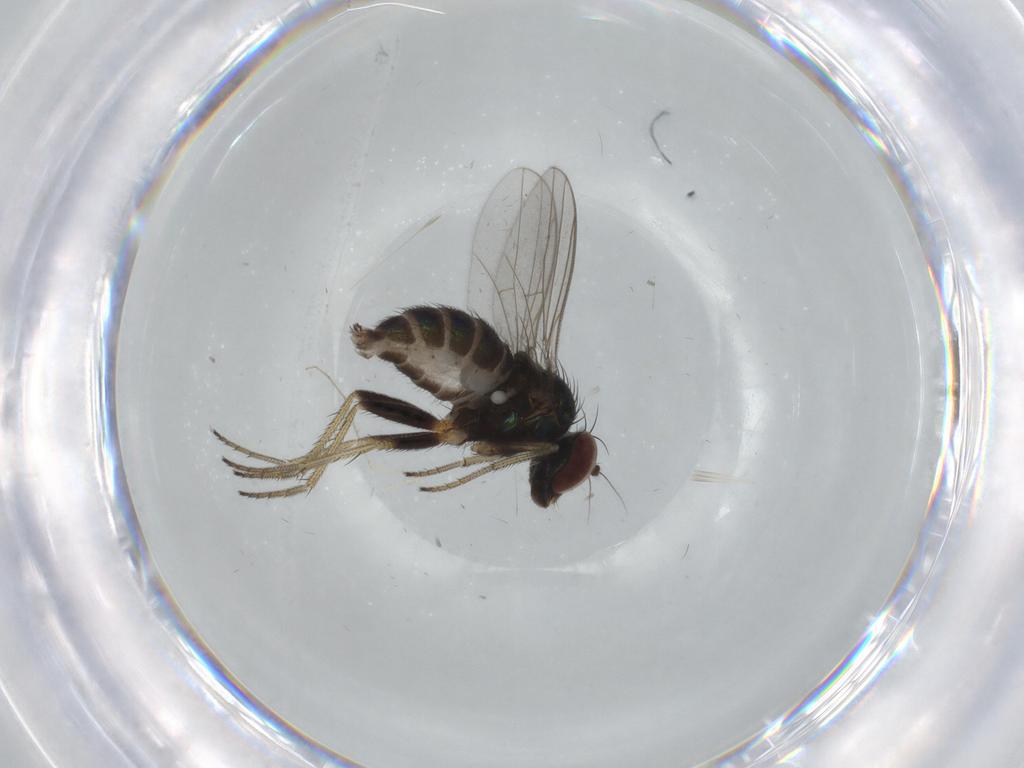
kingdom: Animalia
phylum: Arthropoda
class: Insecta
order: Diptera
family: Dolichopodidae
